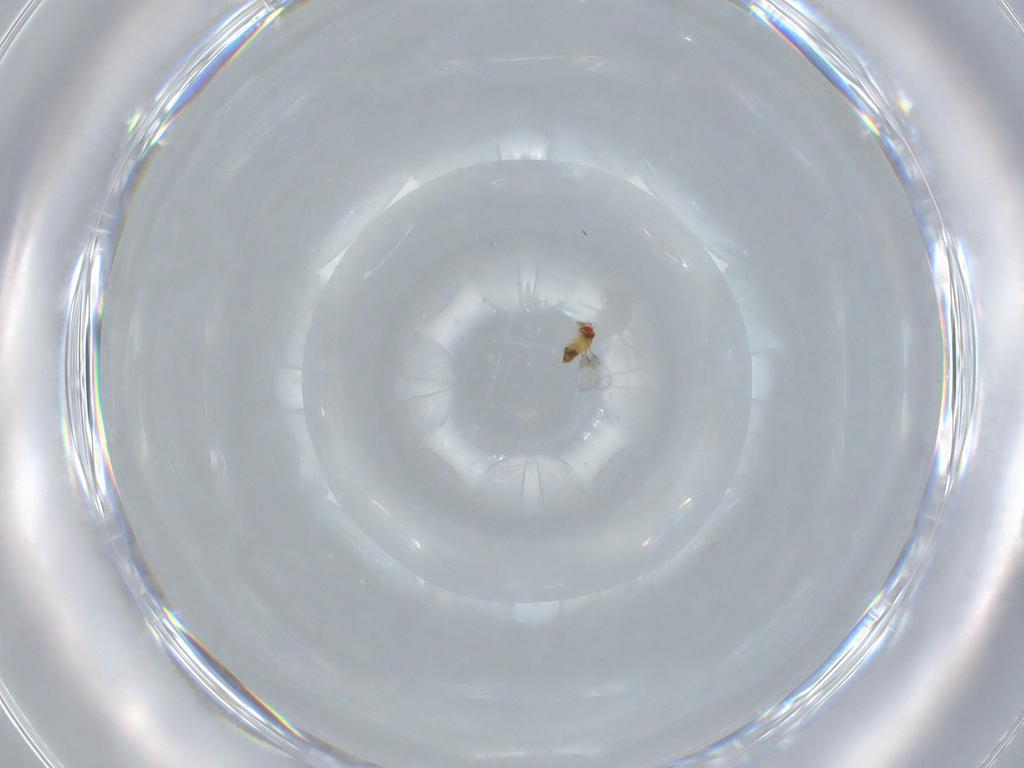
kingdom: Animalia
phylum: Arthropoda
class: Insecta
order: Hymenoptera
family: Trichogrammatidae
